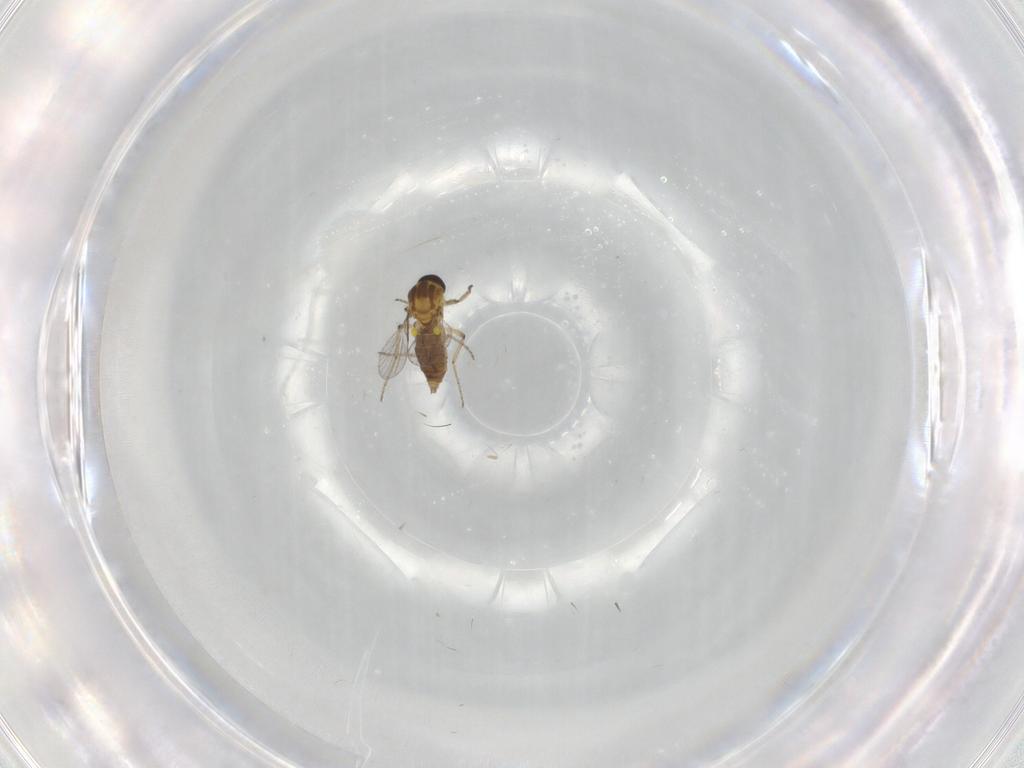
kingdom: Animalia
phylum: Arthropoda
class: Insecta
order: Diptera
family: Ceratopogonidae
